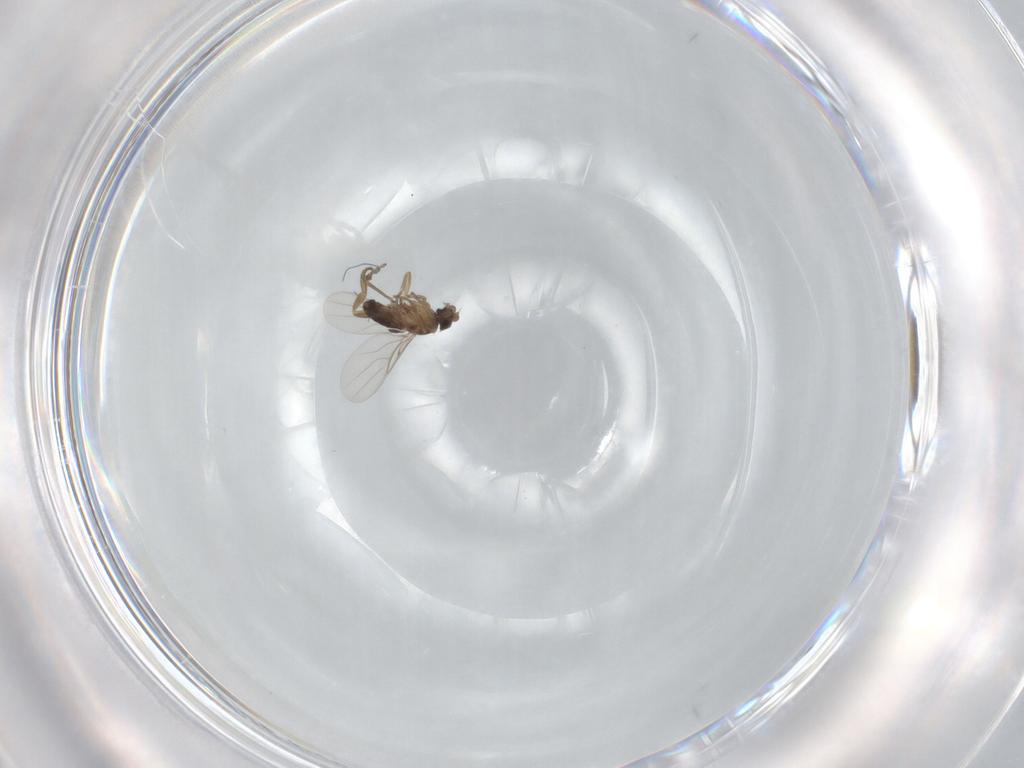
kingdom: Animalia
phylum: Arthropoda
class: Insecta
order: Diptera
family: Phoridae
